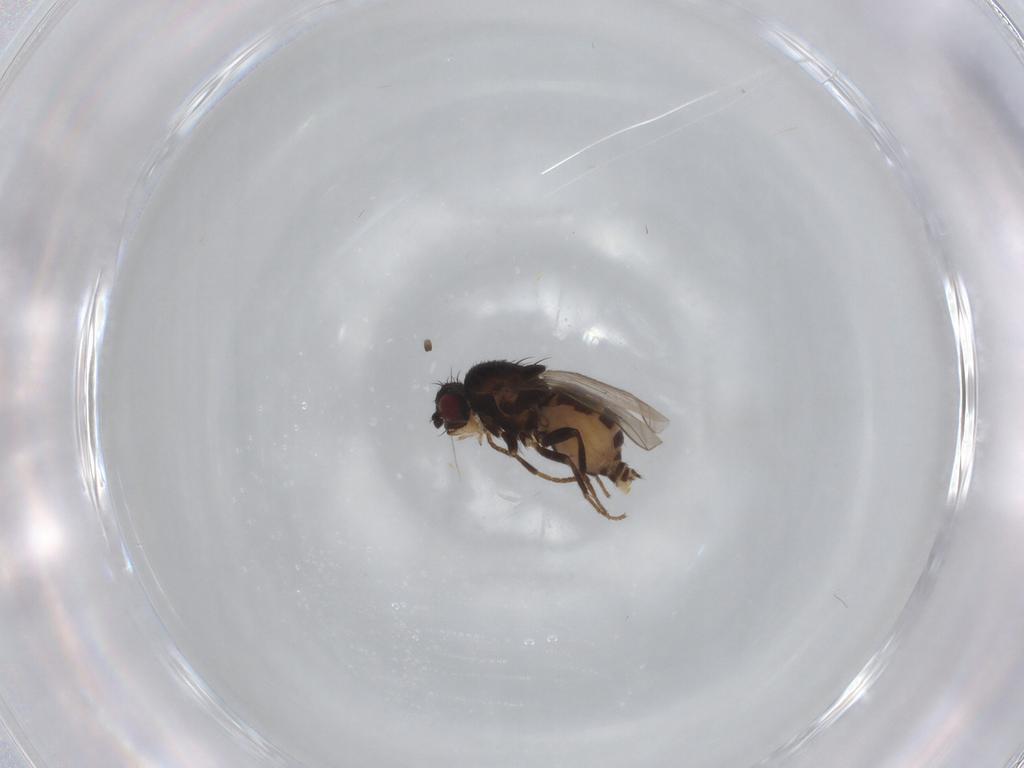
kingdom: Animalia
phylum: Arthropoda
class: Insecta
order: Diptera
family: Sphaeroceridae
